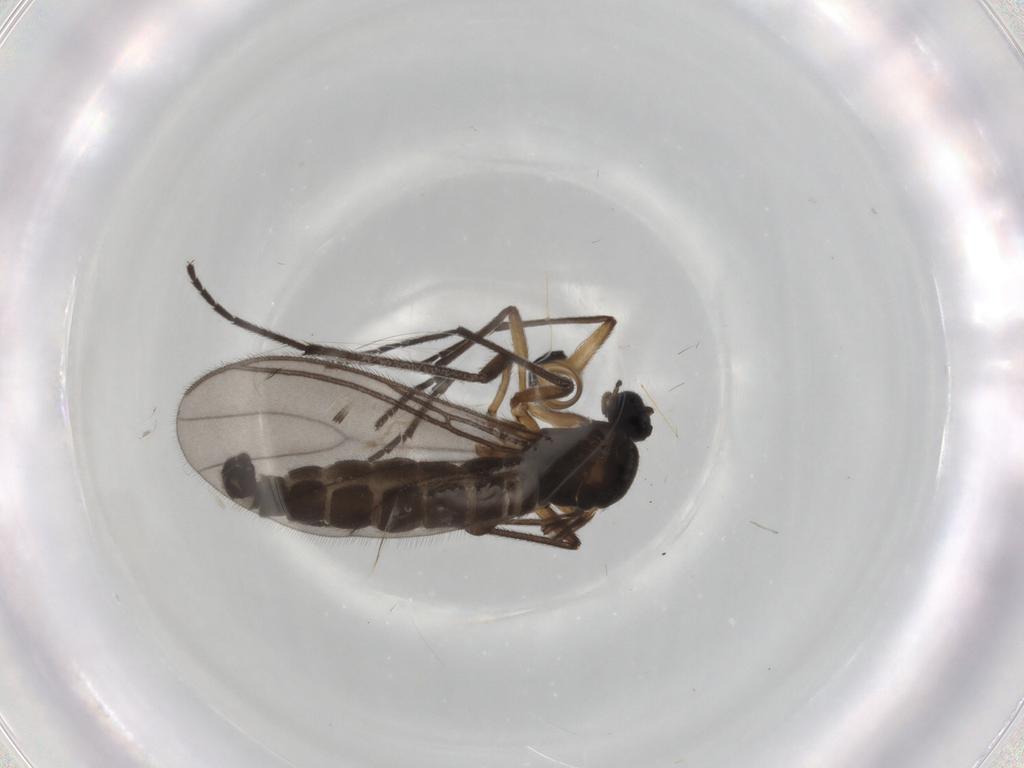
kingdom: Animalia
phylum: Arthropoda
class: Insecta
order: Diptera
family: Sciaridae
